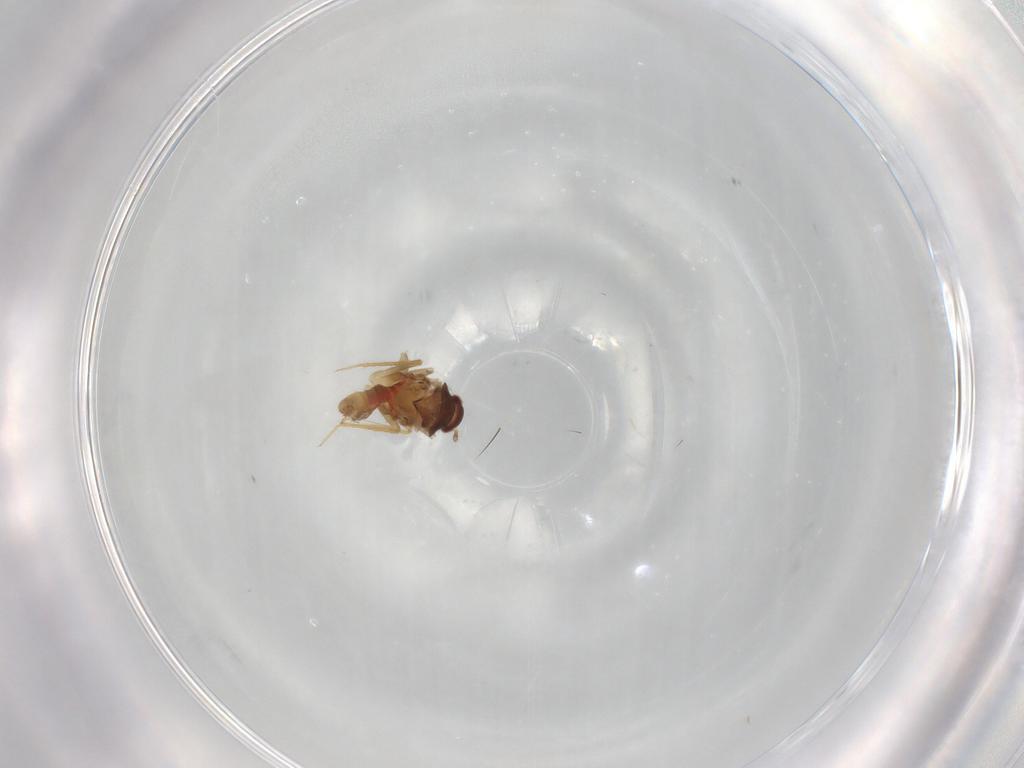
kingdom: Animalia
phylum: Arthropoda
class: Insecta
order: Hemiptera
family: Ceratocombidae
